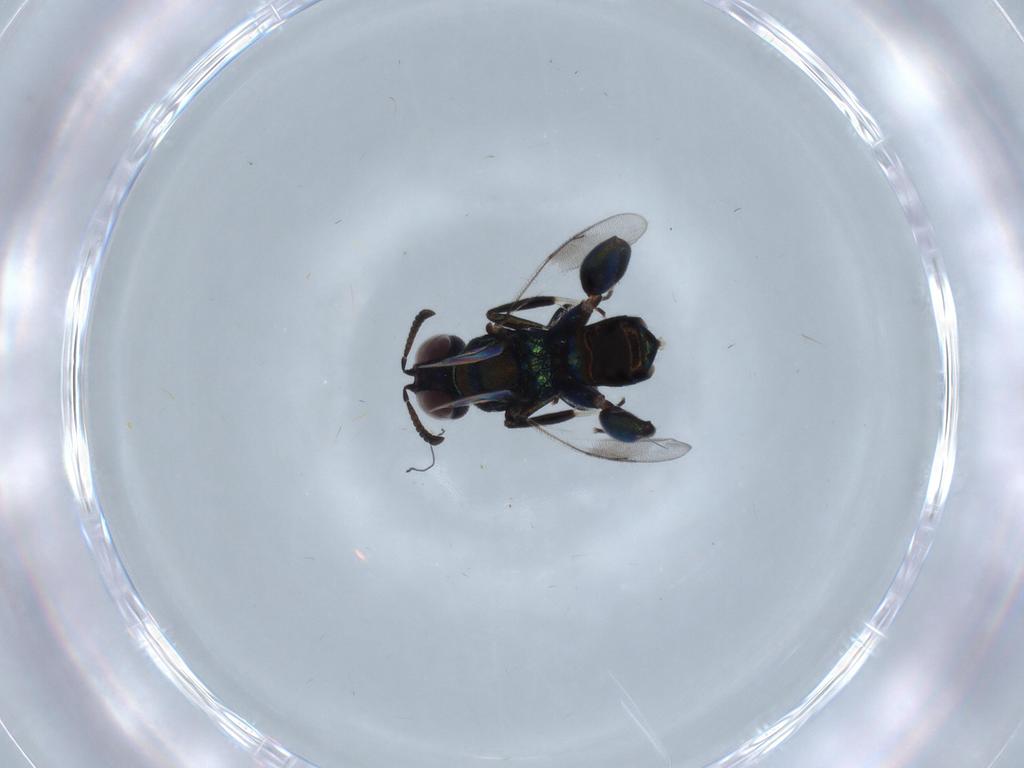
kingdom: Animalia
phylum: Arthropoda
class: Insecta
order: Hymenoptera
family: Pteromalidae
